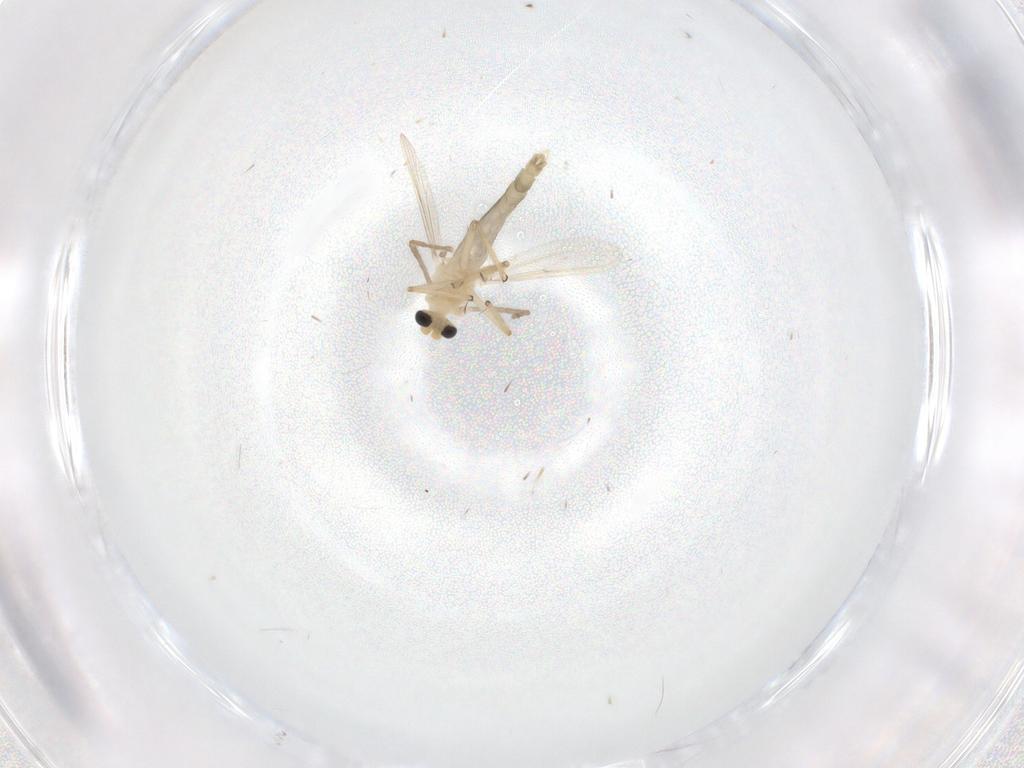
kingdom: Animalia
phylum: Arthropoda
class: Insecta
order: Diptera
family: Chironomidae
